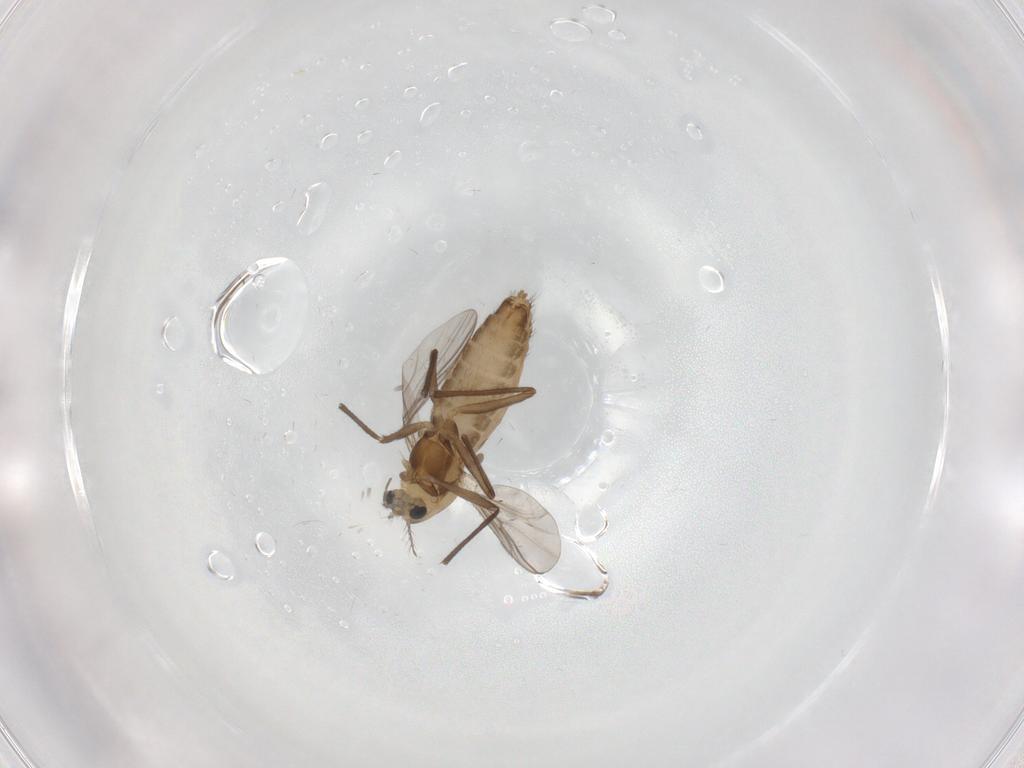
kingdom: Animalia
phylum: Arthropoda
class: Insecta
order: Diptera
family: Chironomidae
